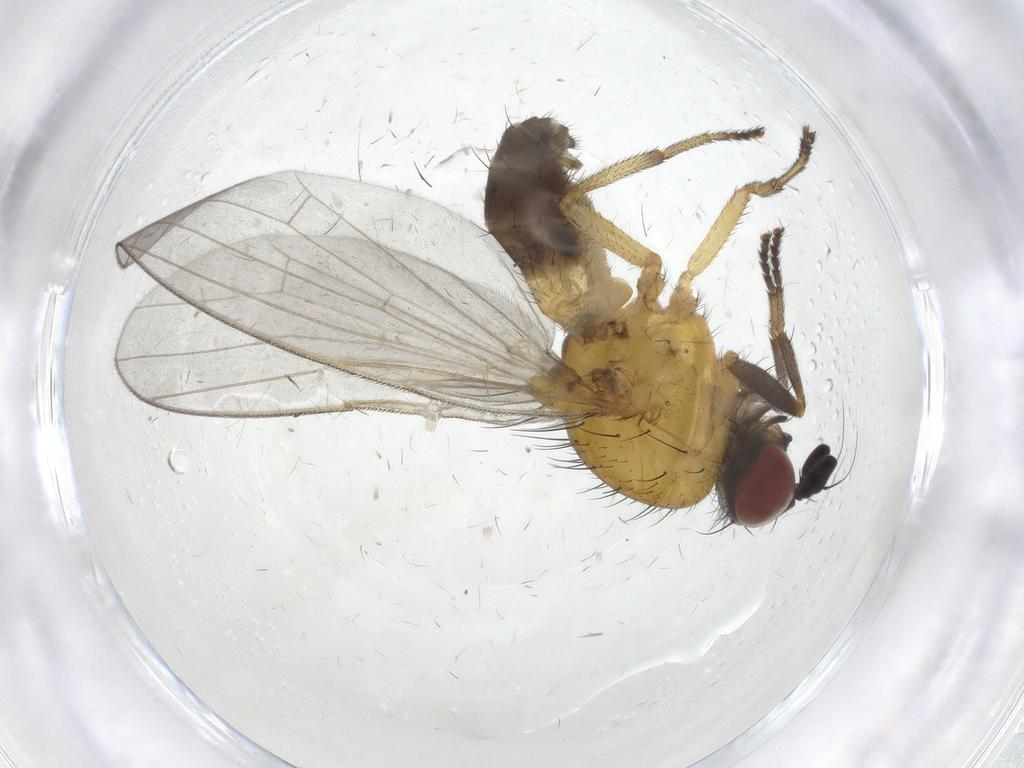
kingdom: Animalia
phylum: Arthropoda
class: Insecta
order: Diptera
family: Lauxaniidae
